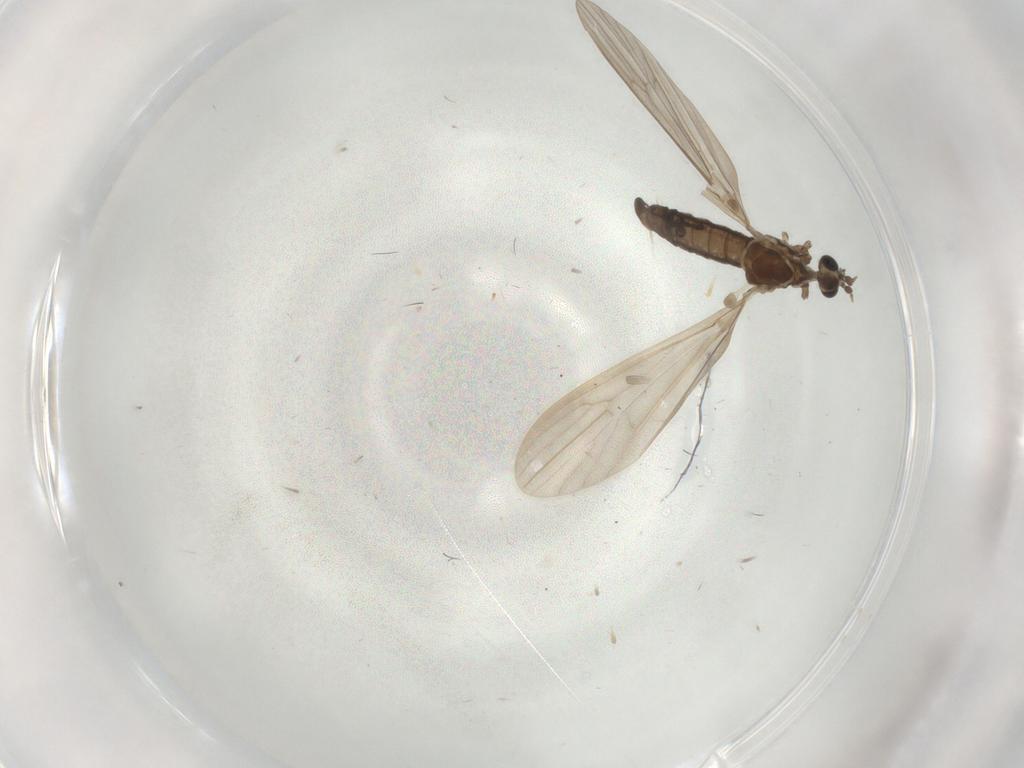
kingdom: Animalia
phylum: Arthropoda
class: Insecta
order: Diptera
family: Limoniidae
